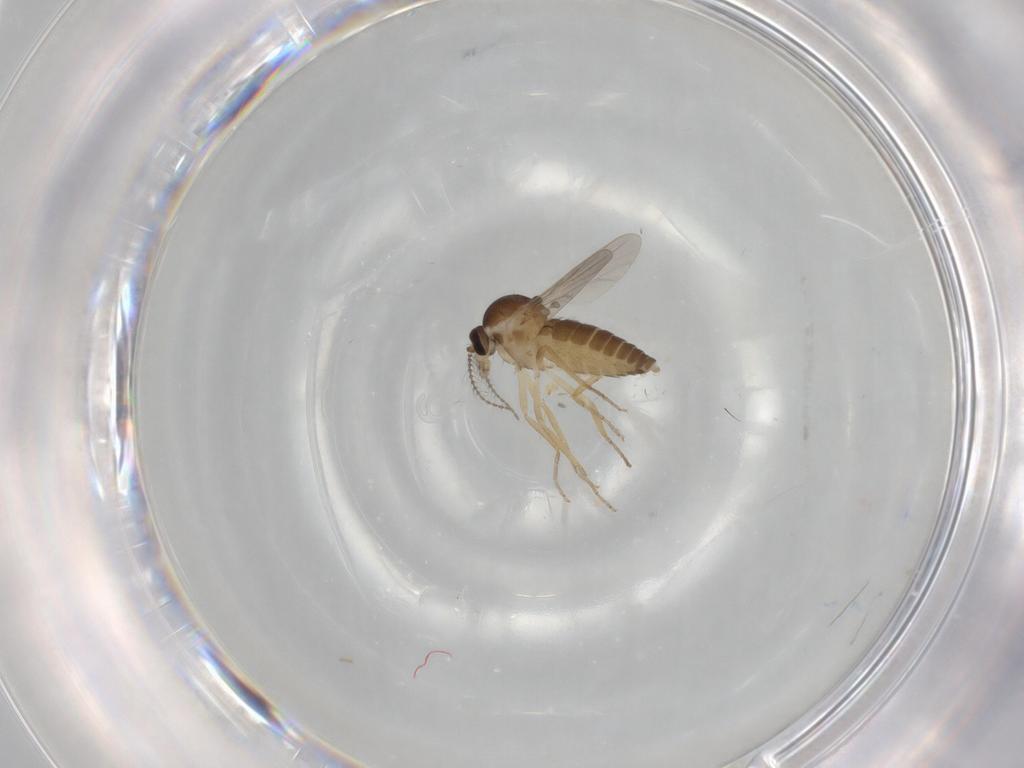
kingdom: Animalia
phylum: Arthropoda
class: Insecta
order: Diptera
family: Ceratopogonidae
